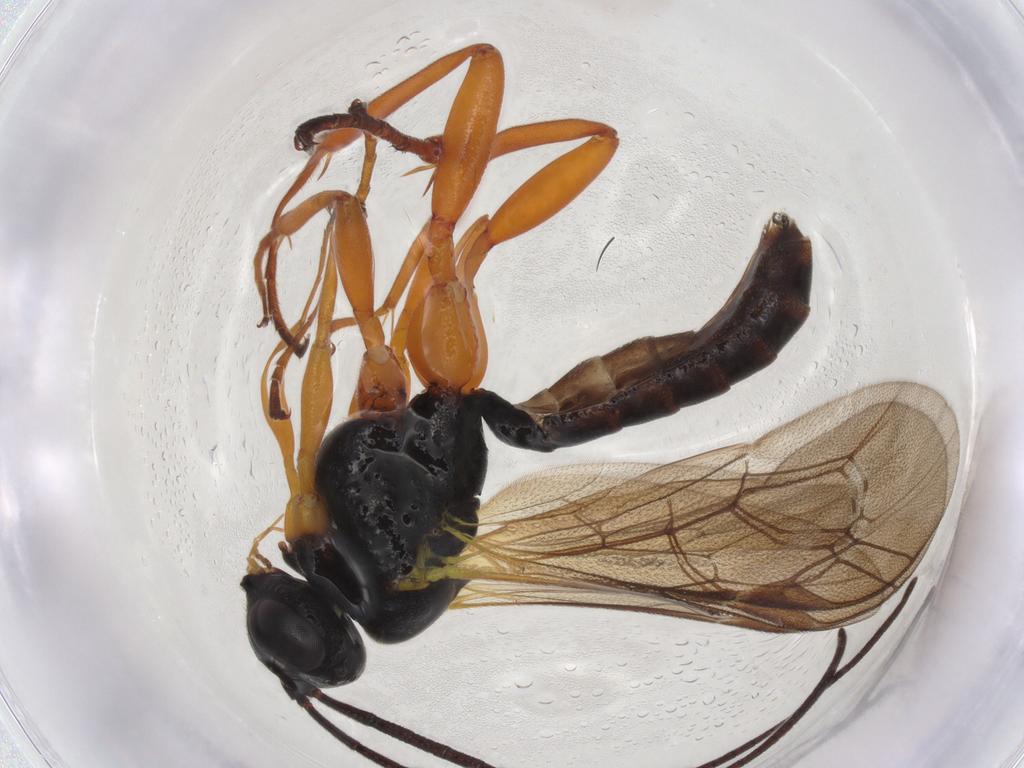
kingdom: Animalia
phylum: Arthropoda
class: Insecta
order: Hymenoptera
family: Ichneumonidae
